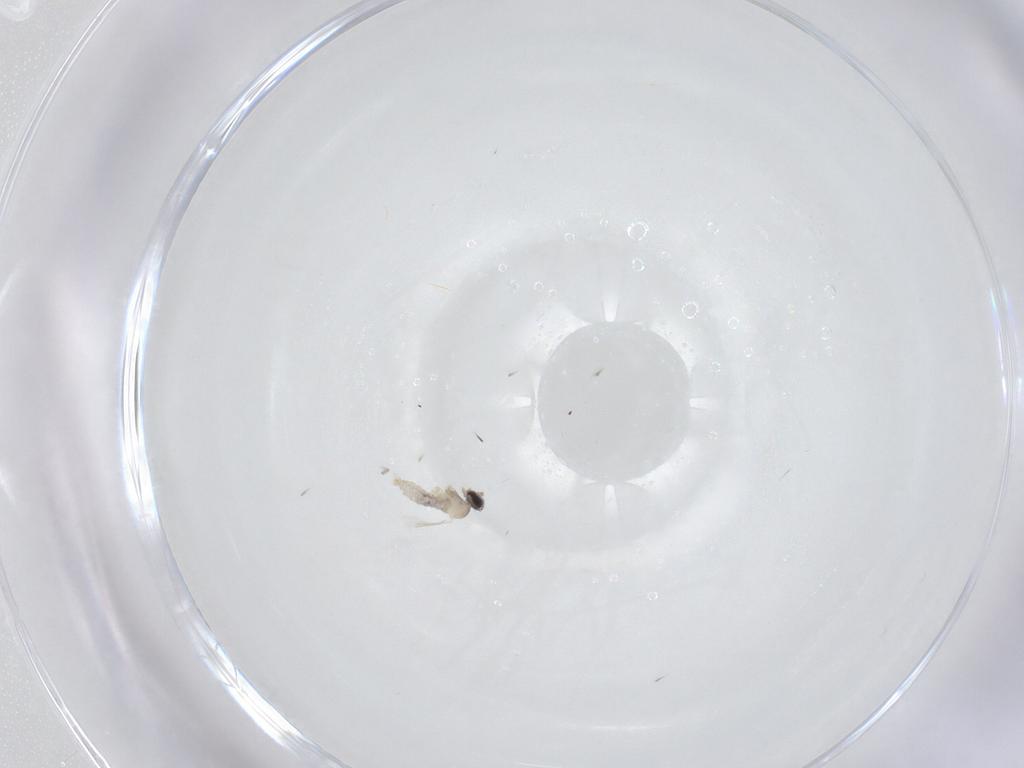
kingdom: Animalia
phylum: Arthropoda
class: Insecta
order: Diptera
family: Cecidomyiidae
